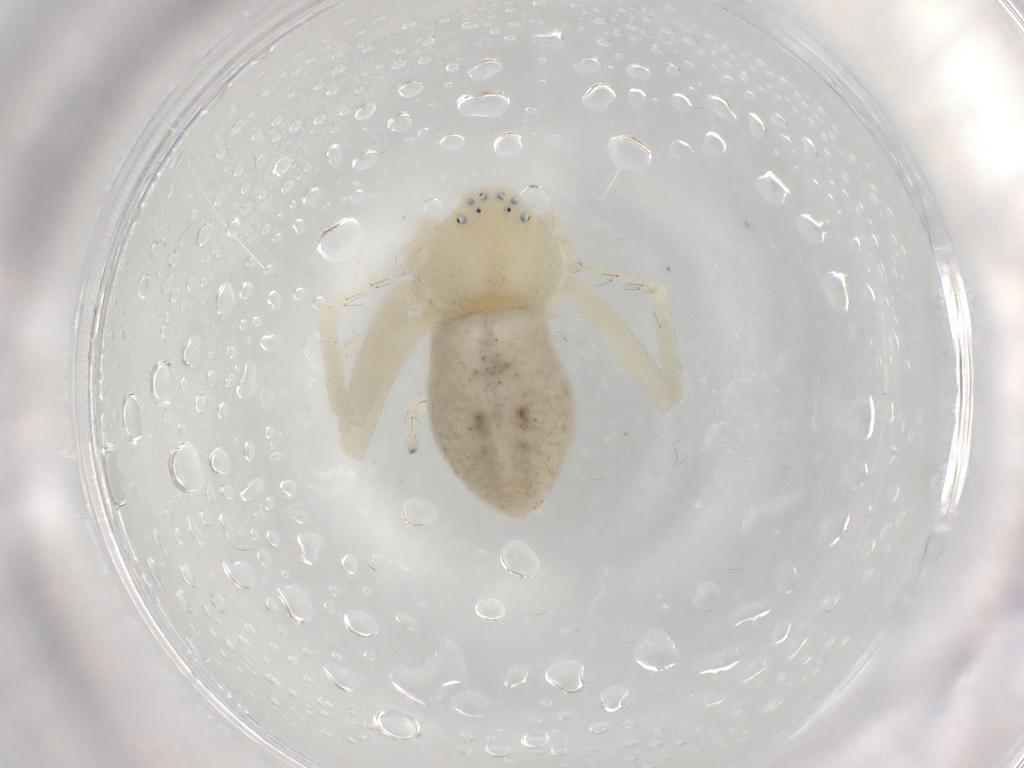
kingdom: Animalia
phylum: Arthropoda
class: Arachnida
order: Araneae
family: Philodromidae
